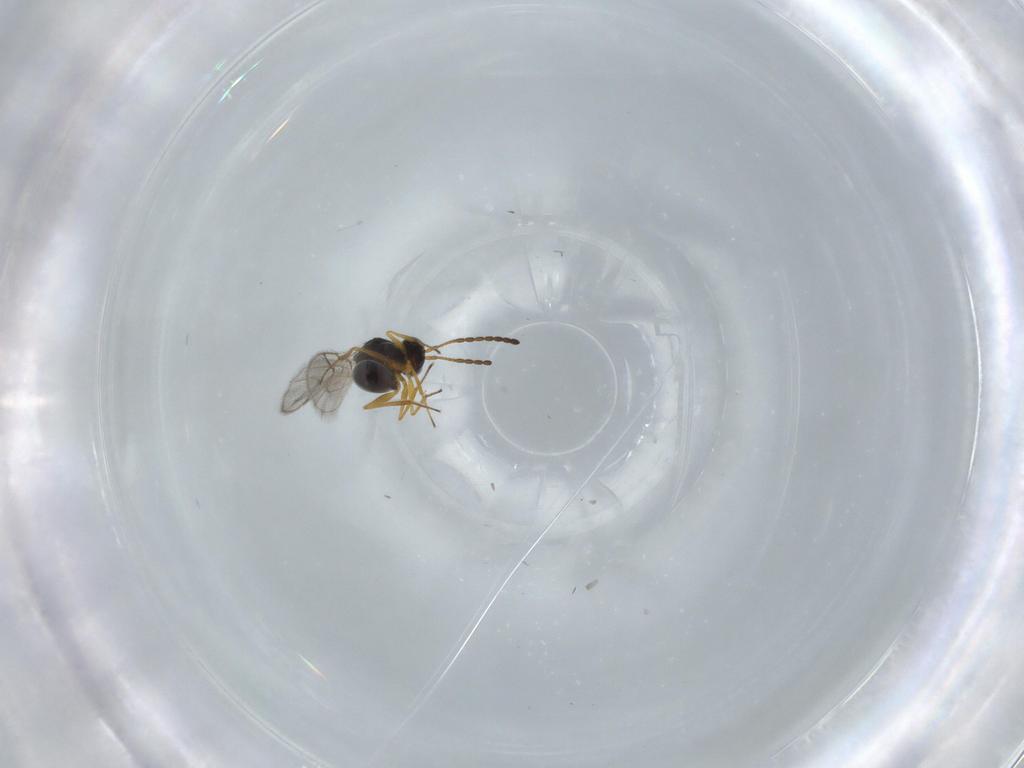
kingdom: Animalia
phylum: Arthropoda
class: Insecta
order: Hymenoptera
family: Figitidae
